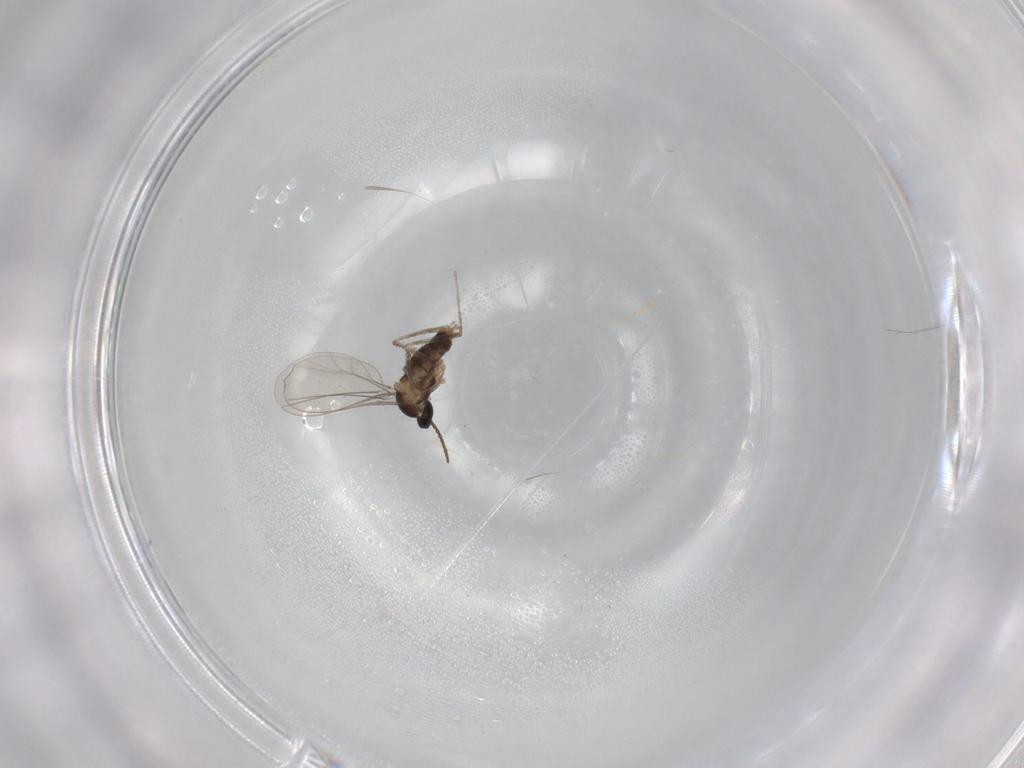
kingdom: Animalia
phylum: Arthropoda
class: Insecta
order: Diptera
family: Cecidomyiidae
